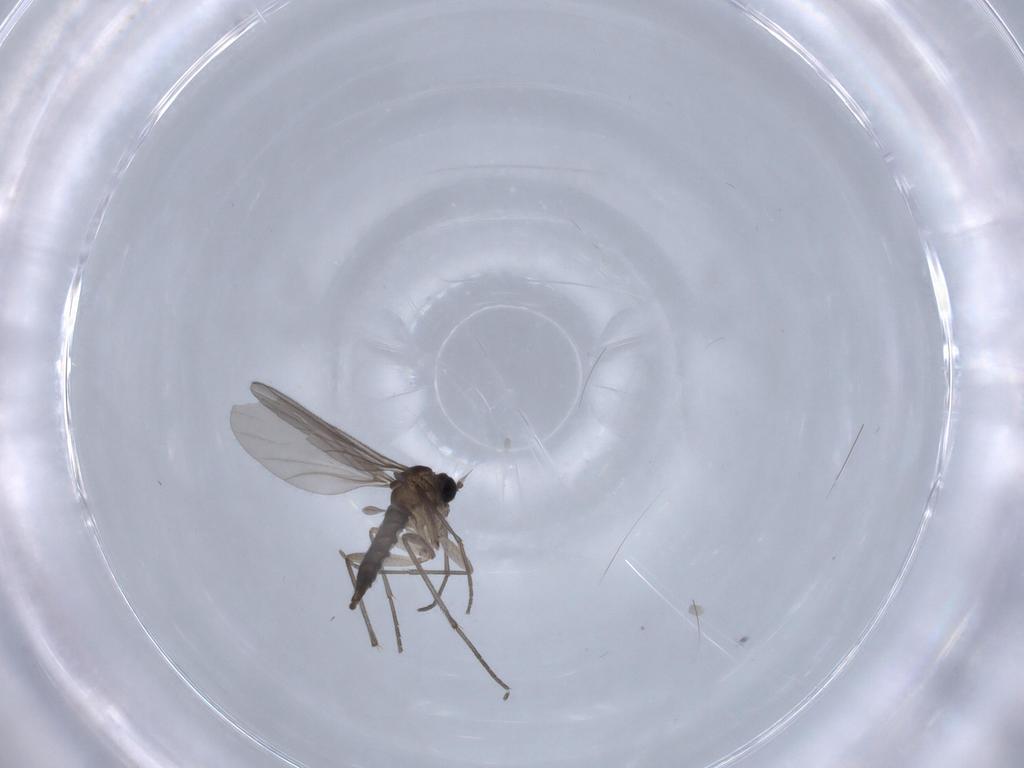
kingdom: Animalia
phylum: Arthropoda
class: Insecta
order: Diptera
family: Sciaridae
